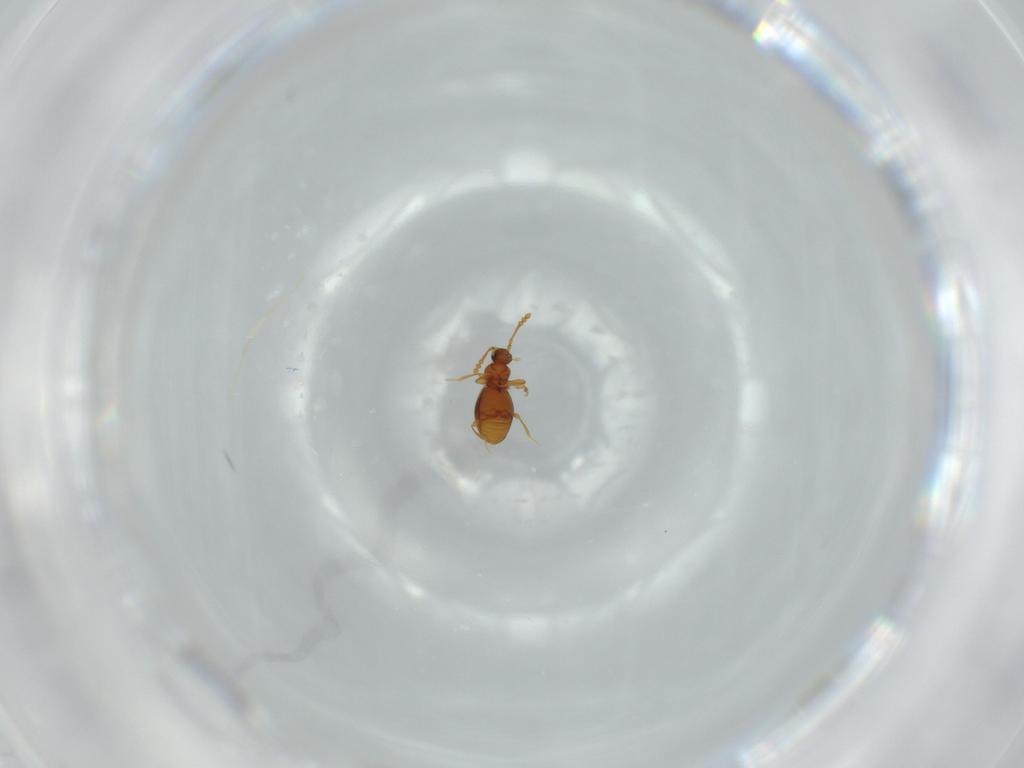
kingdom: Animalia
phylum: Arthropoda
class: Insecta
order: Coleoptera
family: Staphylinidae
